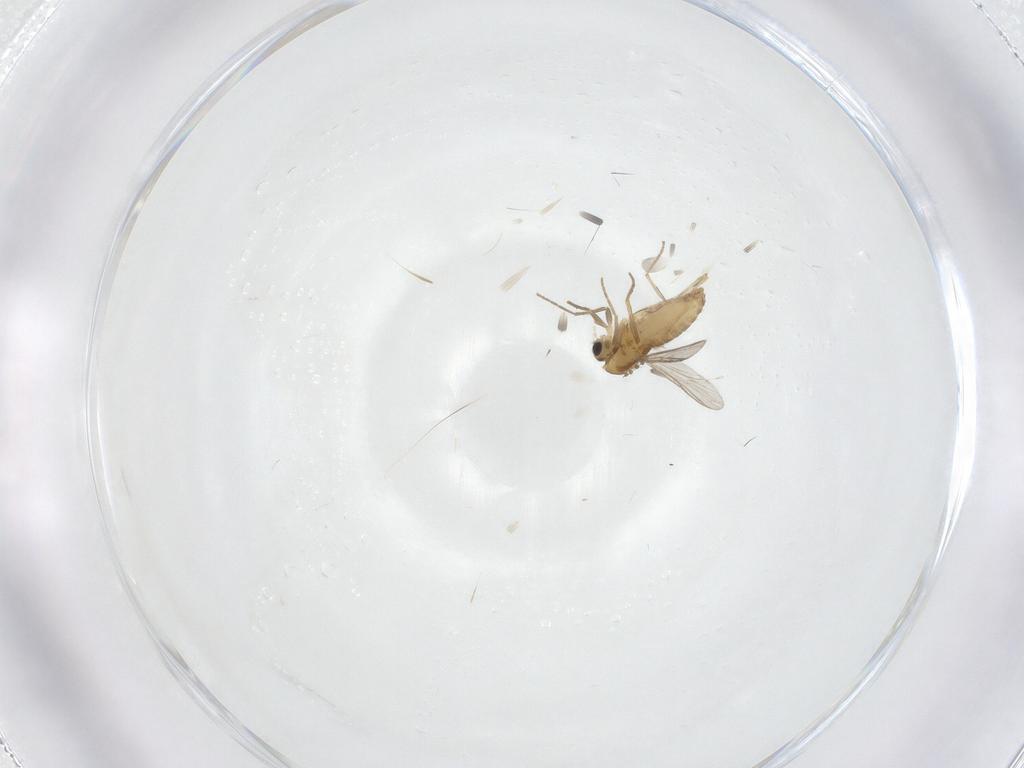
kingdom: Animalia
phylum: Arthropoda
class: Insecta
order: Diptera
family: Chironomidae
